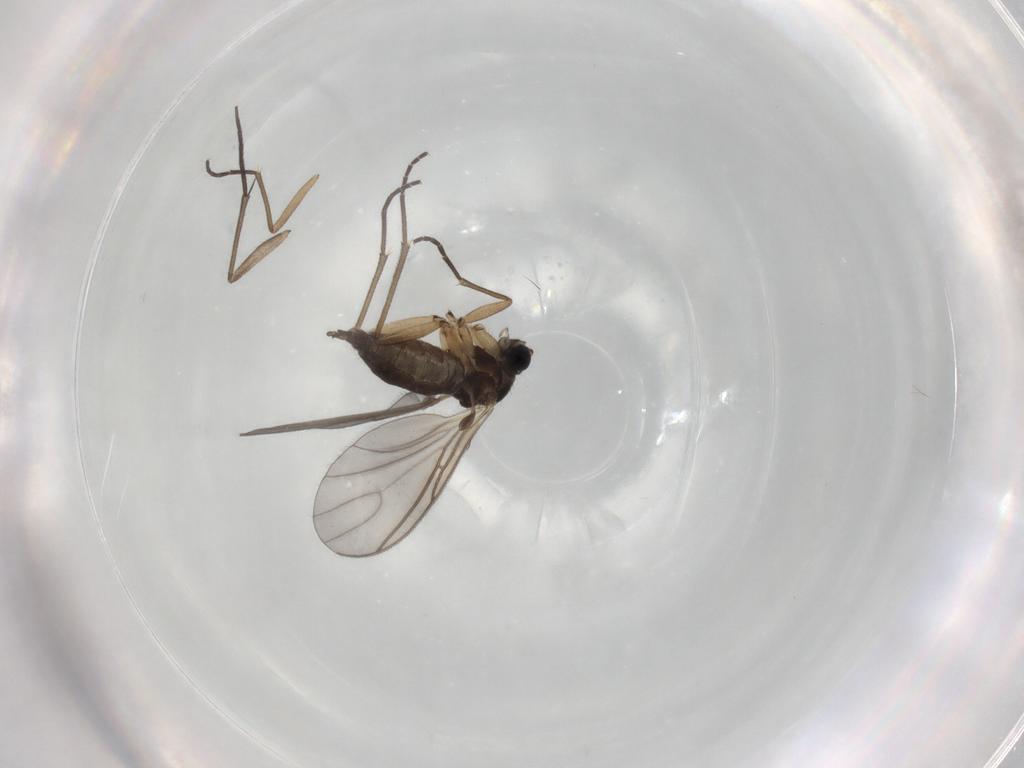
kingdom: Animalia
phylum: Arthropoda
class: Insecta
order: Diptera
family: Sciaridae
